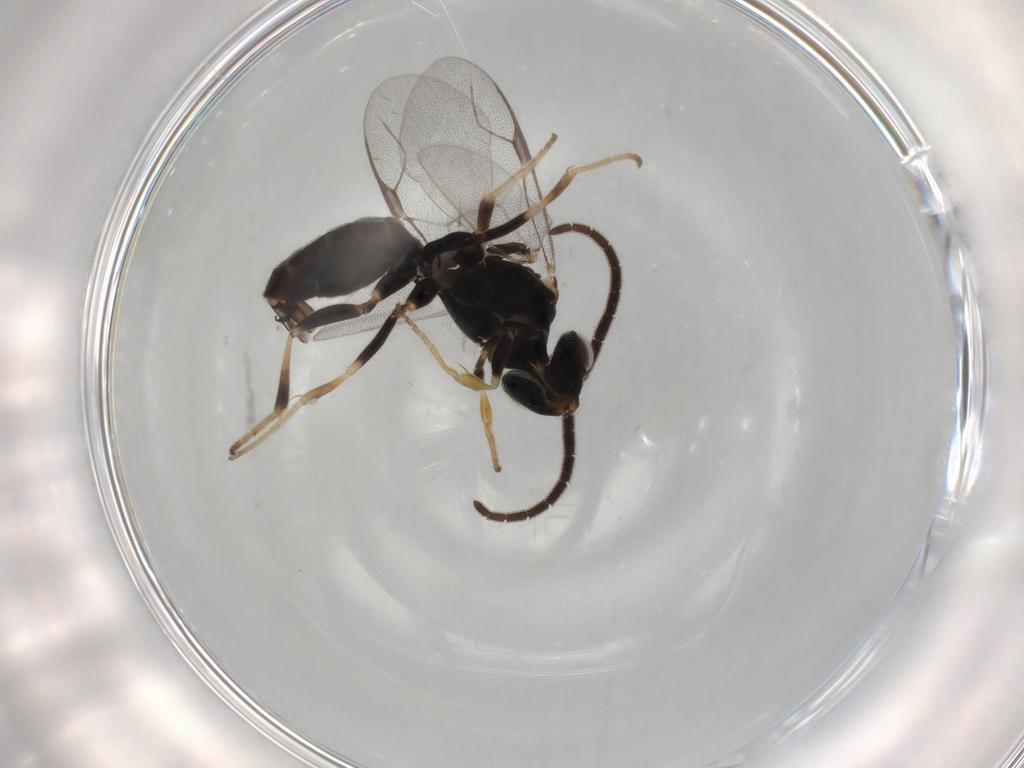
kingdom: Animalia
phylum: Arthropoda
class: Insecta
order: Hymenoptera
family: Dryinidae
